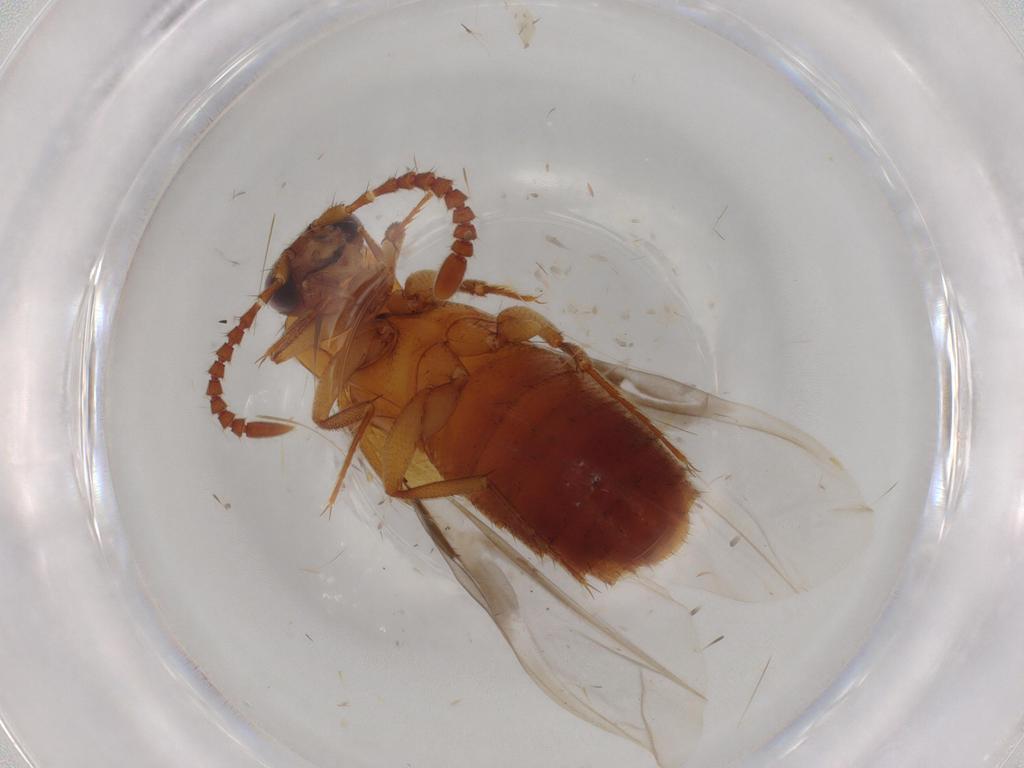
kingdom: Animalia
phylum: Arthropoda
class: Insecta
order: Coleoptera
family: Staphylinidae
